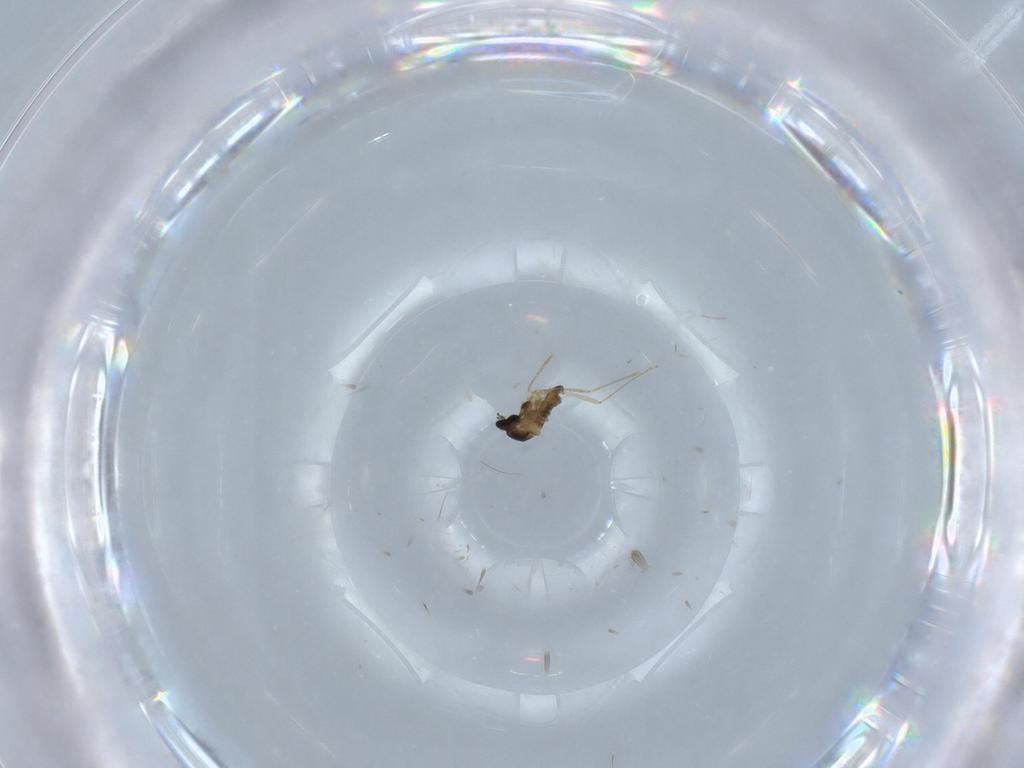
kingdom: Animalia
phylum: Arthropoda
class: Insecta
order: Diptera
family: Cecidomyiidae
